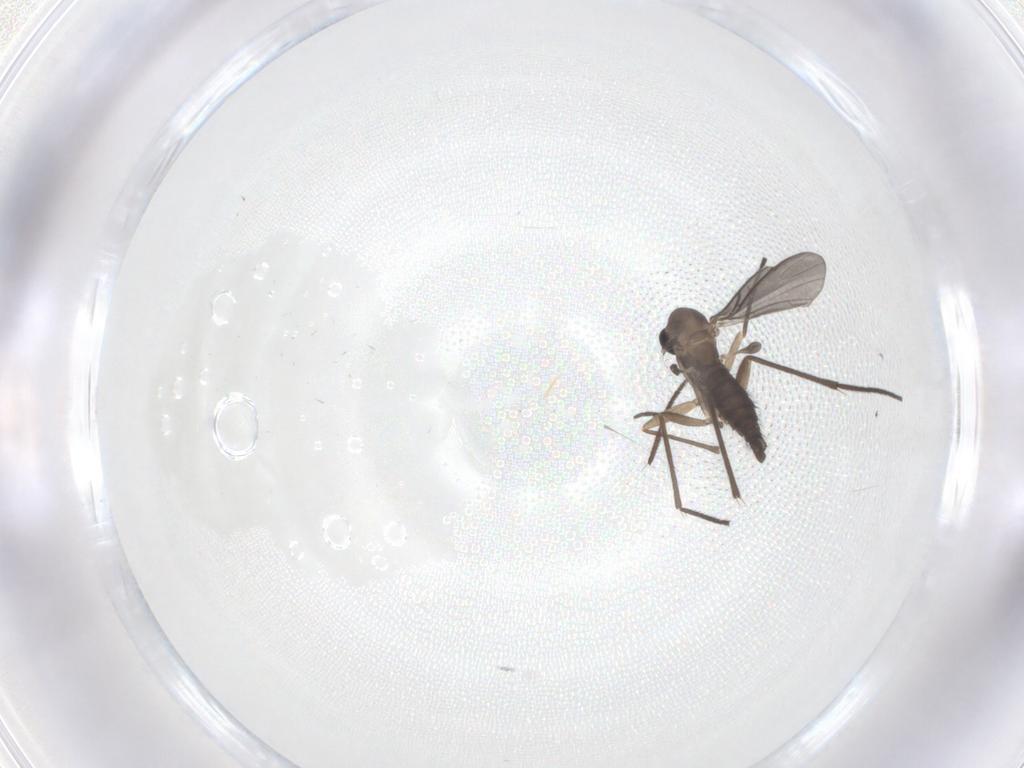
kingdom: Animalia
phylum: Arthropoda
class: Insecta
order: Diptera
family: Sciaridae
